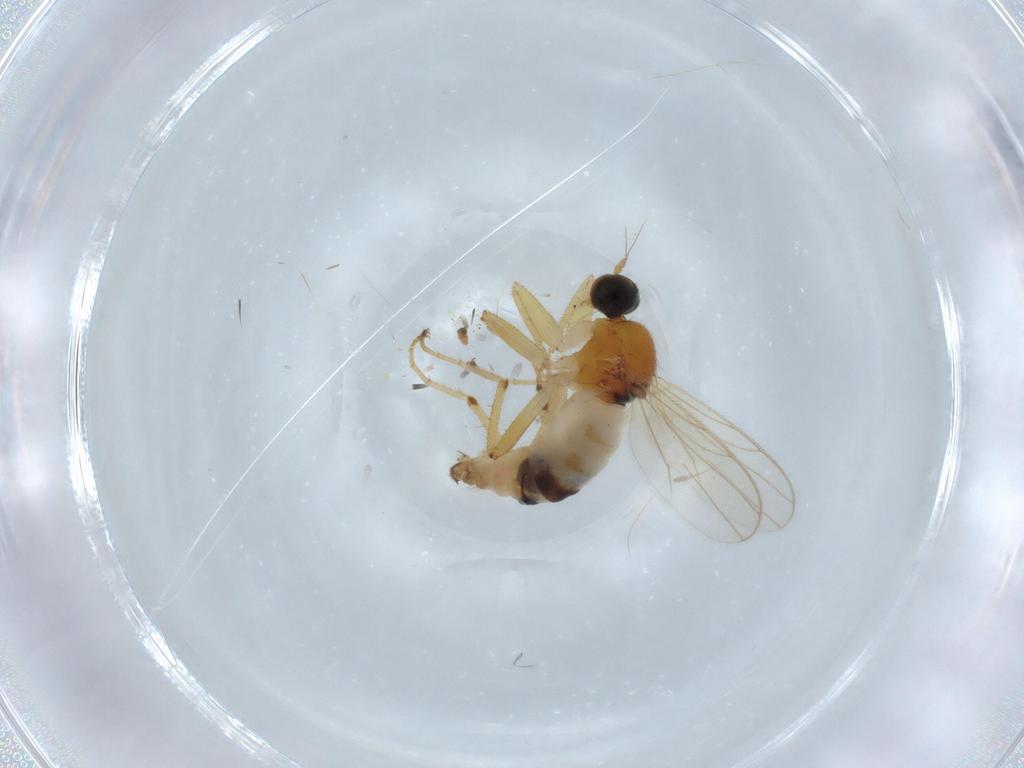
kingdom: Animalia
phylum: Arthropoda
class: Insecta
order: Diptera
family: Hybotidae
